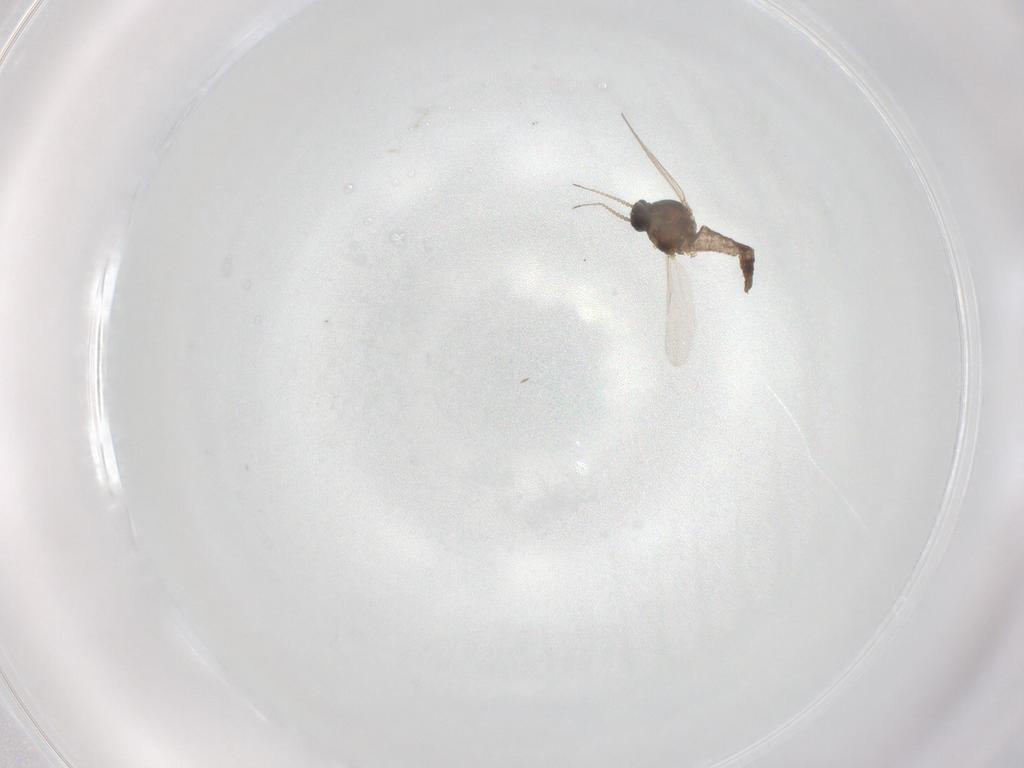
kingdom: Animalia
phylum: Arthropoda
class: Insecta
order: Diptera
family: Ceratopogonidae
